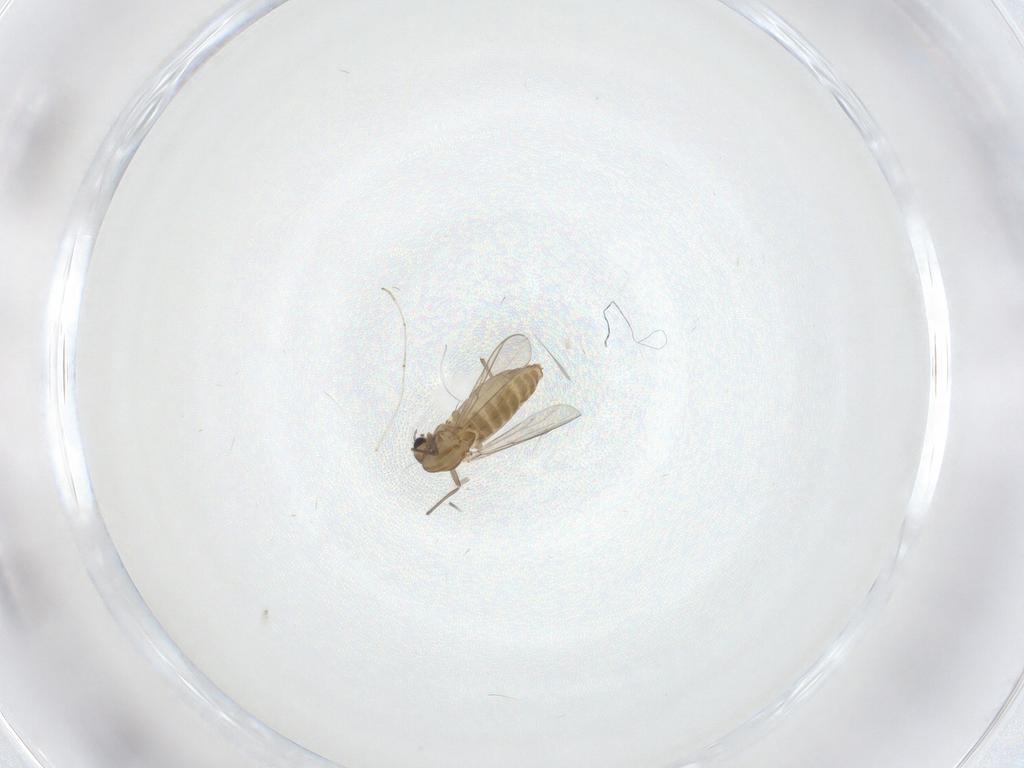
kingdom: Animalia
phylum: Arthropoda
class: Insecta
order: Diptera
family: Chironomidae
